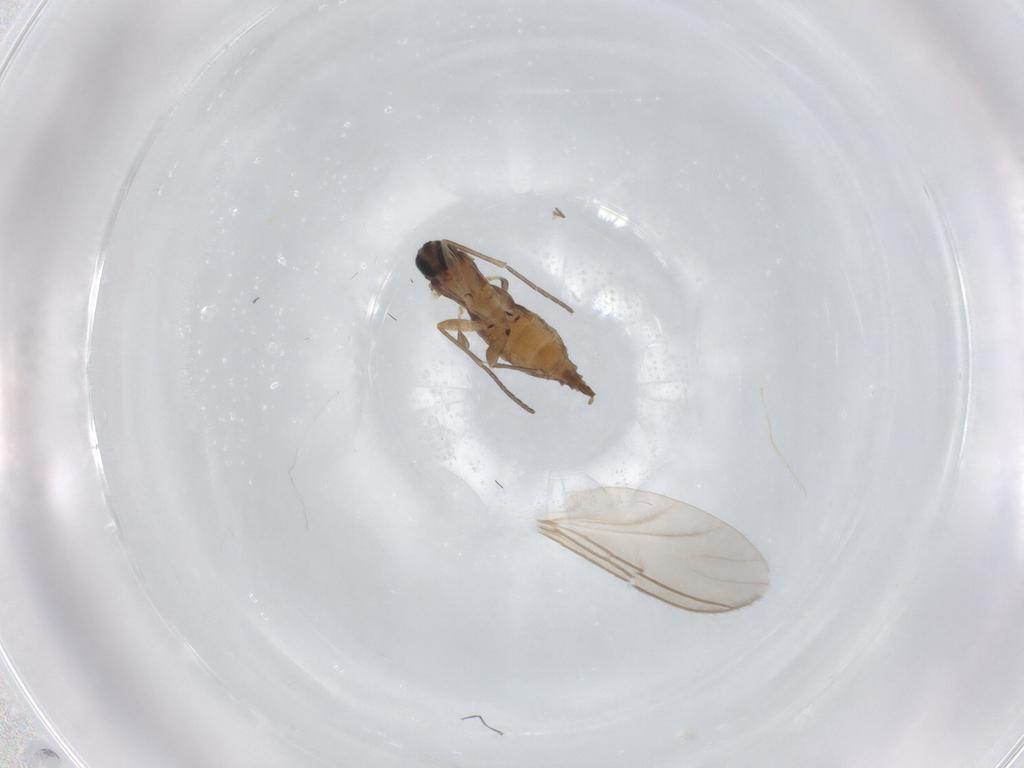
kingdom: Animalia
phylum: Arthropoda
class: Insecta
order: Diptera
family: Sciaridae
